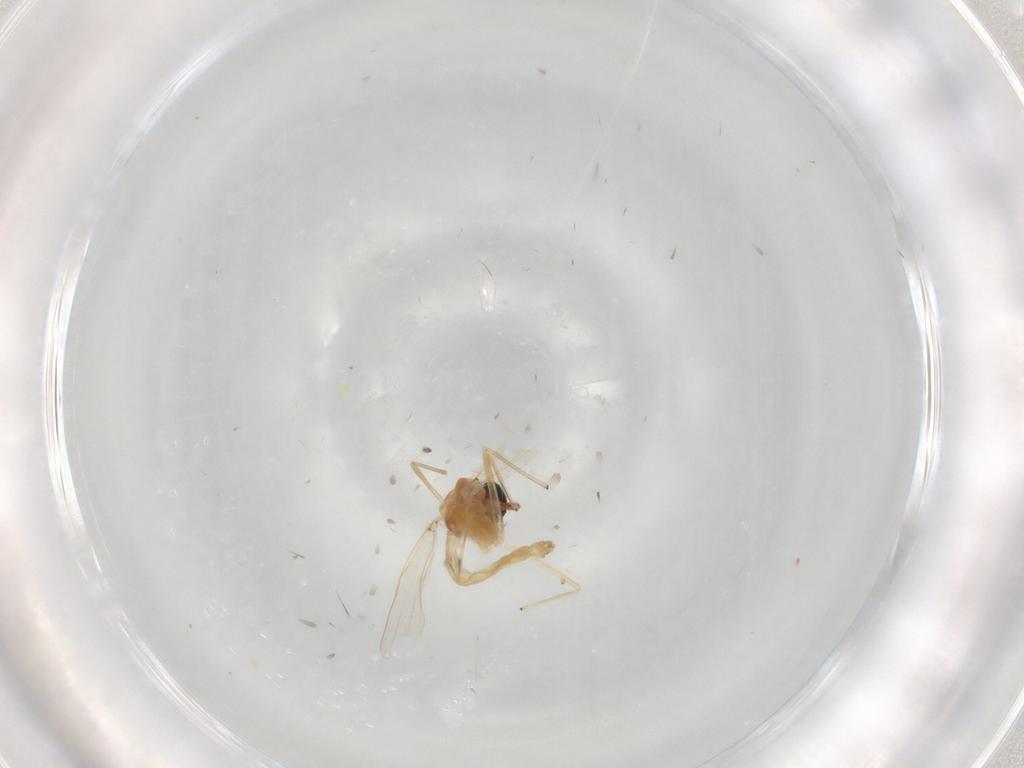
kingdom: Animalia
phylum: Arthropoda
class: Insecta
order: Diptera
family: Chironomidae
